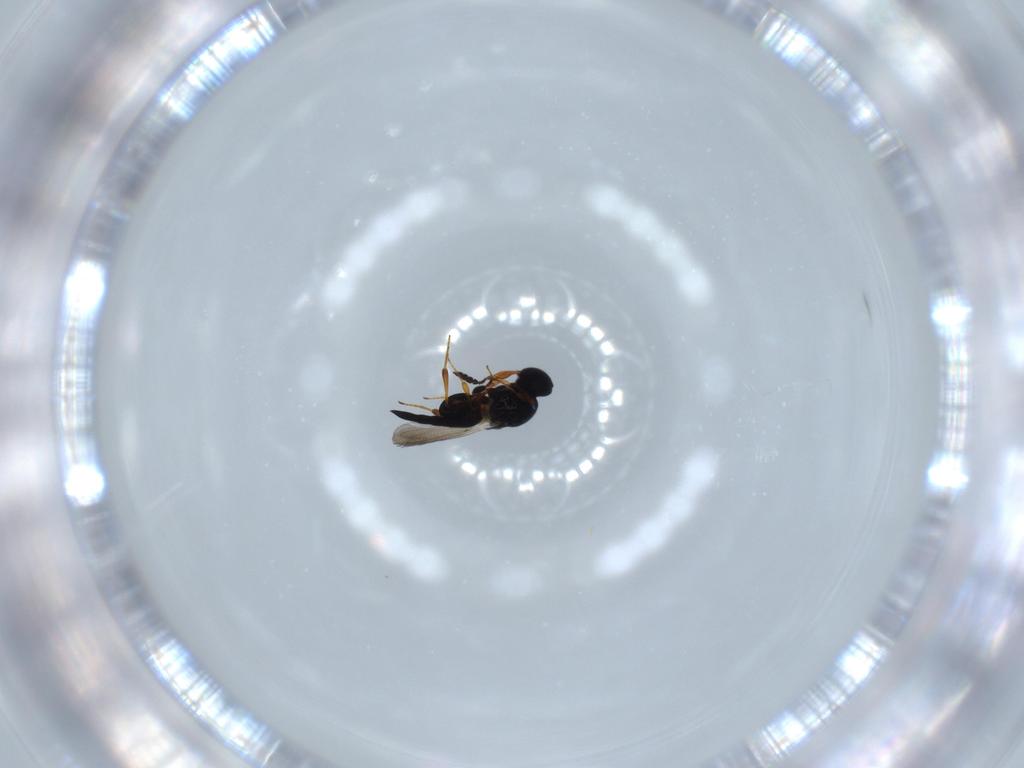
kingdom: Animalia
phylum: Arthropoda
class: Insecta
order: Hymenoptera
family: Platygastridae
